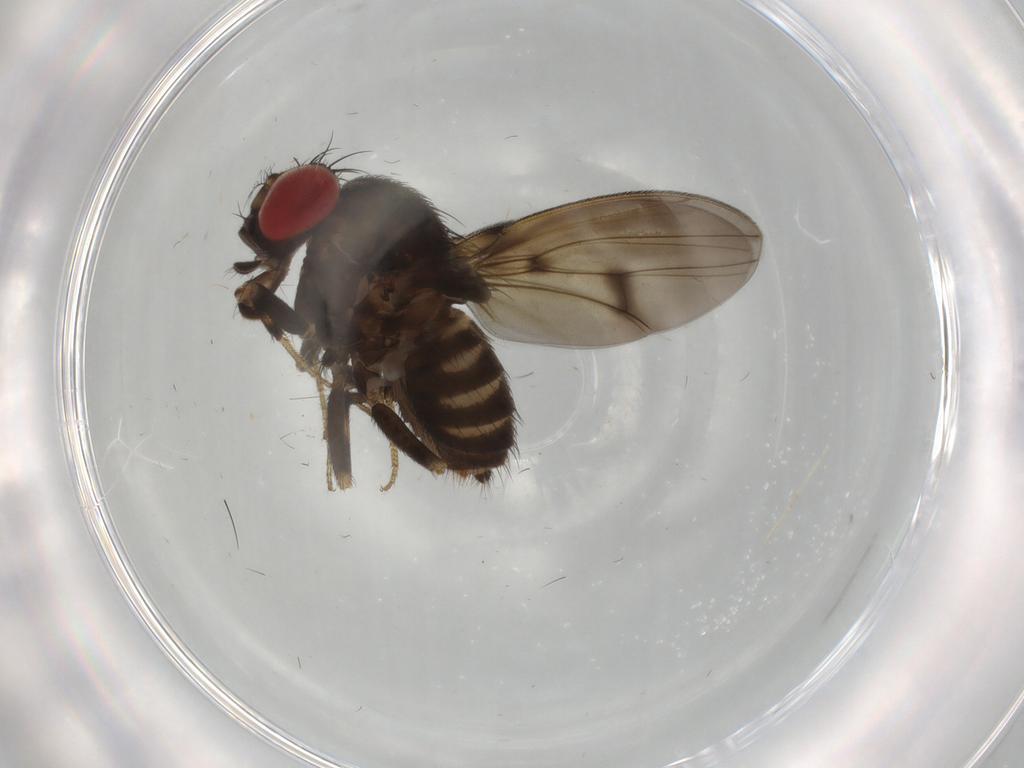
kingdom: Animalia
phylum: Arthropoda
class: Insecta
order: Diptera
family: Drosophilidae
